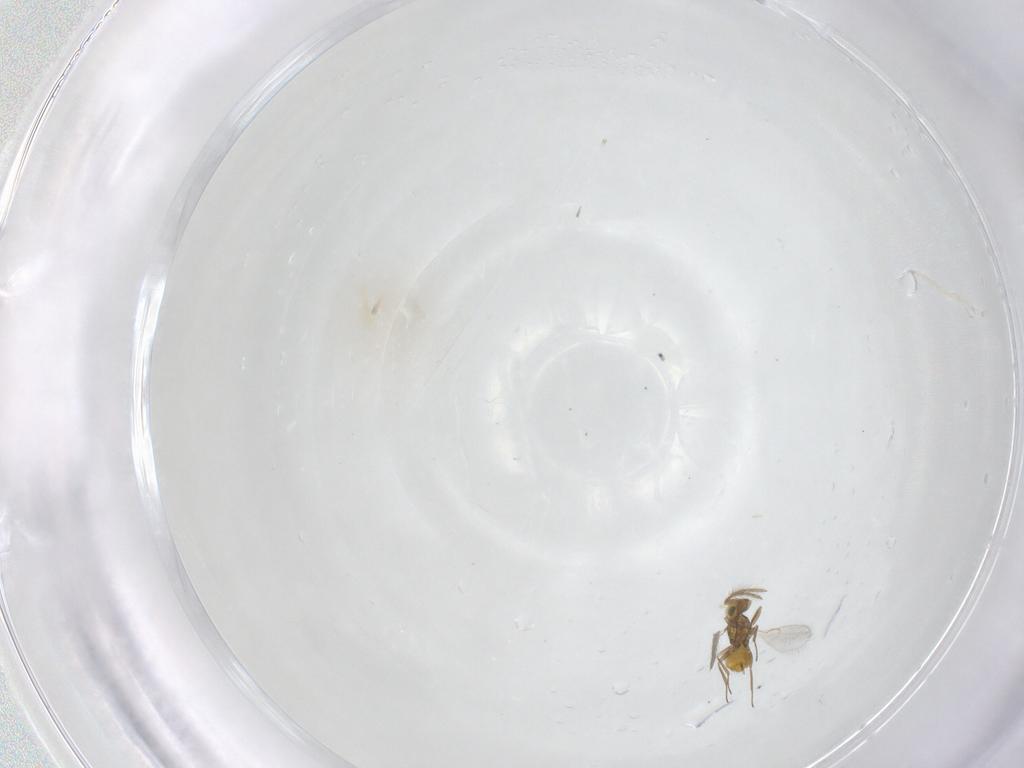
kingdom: Animalia
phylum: Arthropoda
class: Insecta
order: Hymenoptera
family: Aphelinidae
